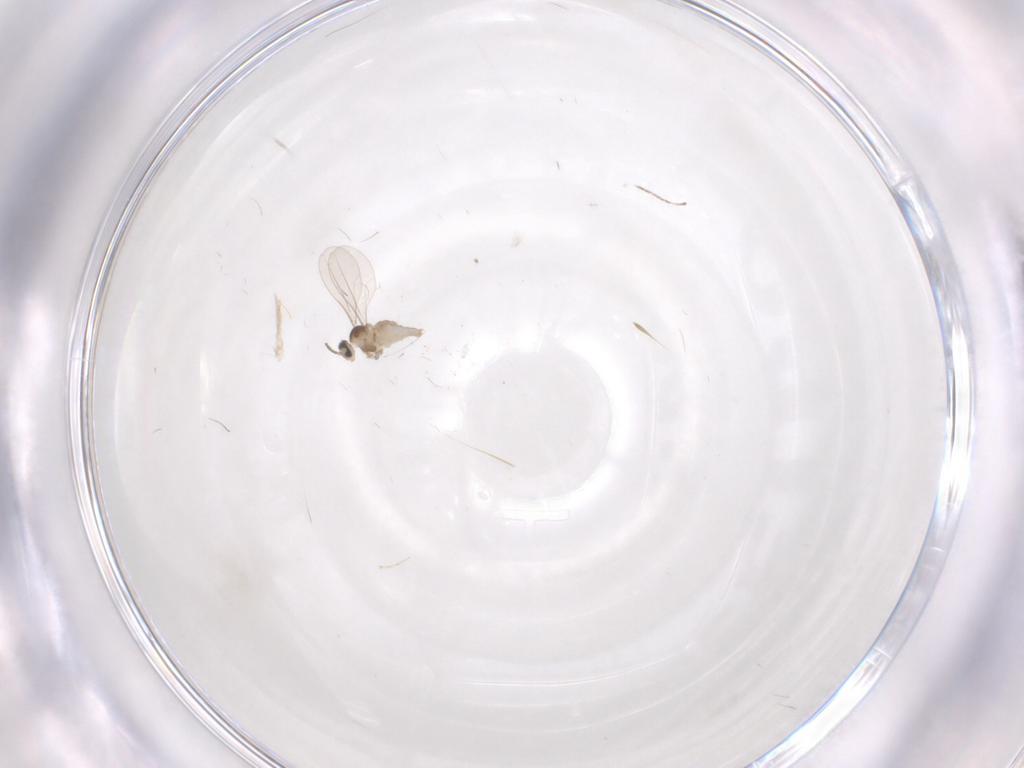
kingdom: Animalia
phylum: Arthropoda
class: Insecta
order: Diptera
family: Cecidomyiidae
